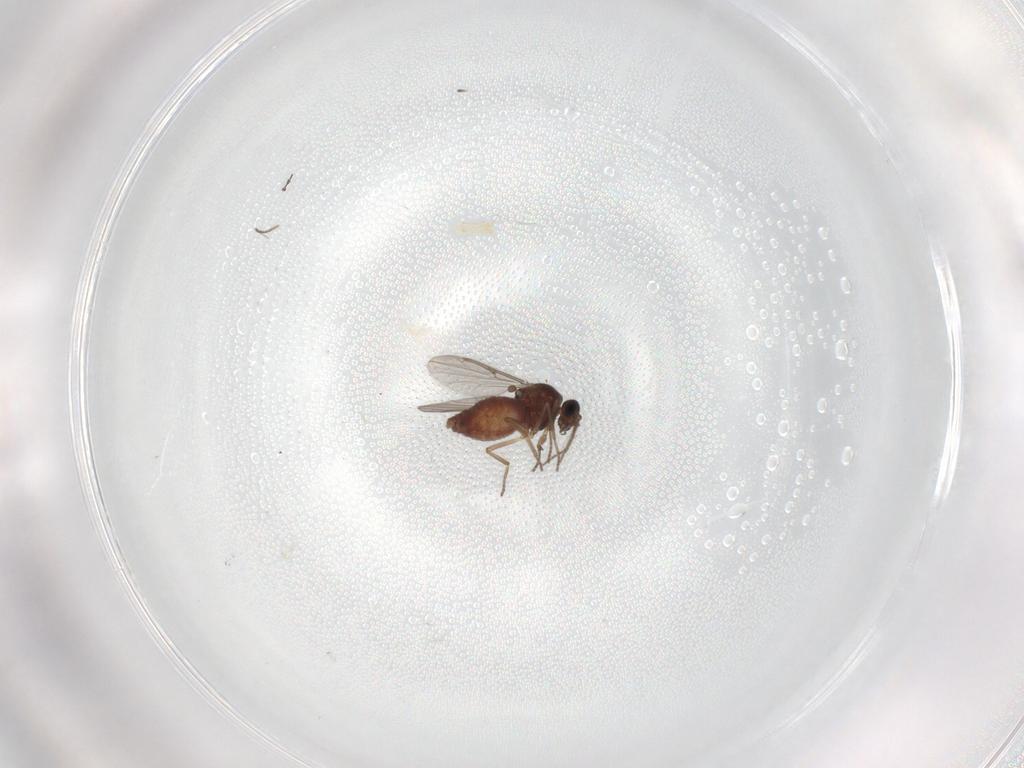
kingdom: Animalia
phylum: Arthropoda
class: Insecta
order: Diptera
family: Ceratopogonidae
